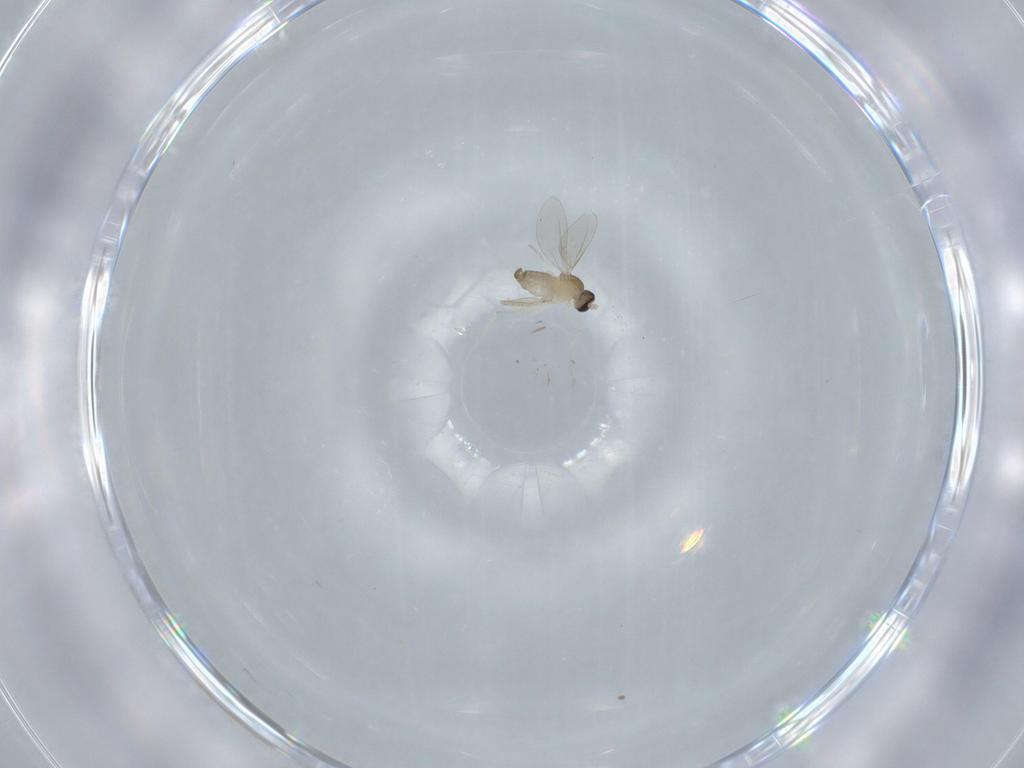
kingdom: Animalia
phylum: Arthropoda
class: Insecta
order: Diptera
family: Cecidomyiidae
